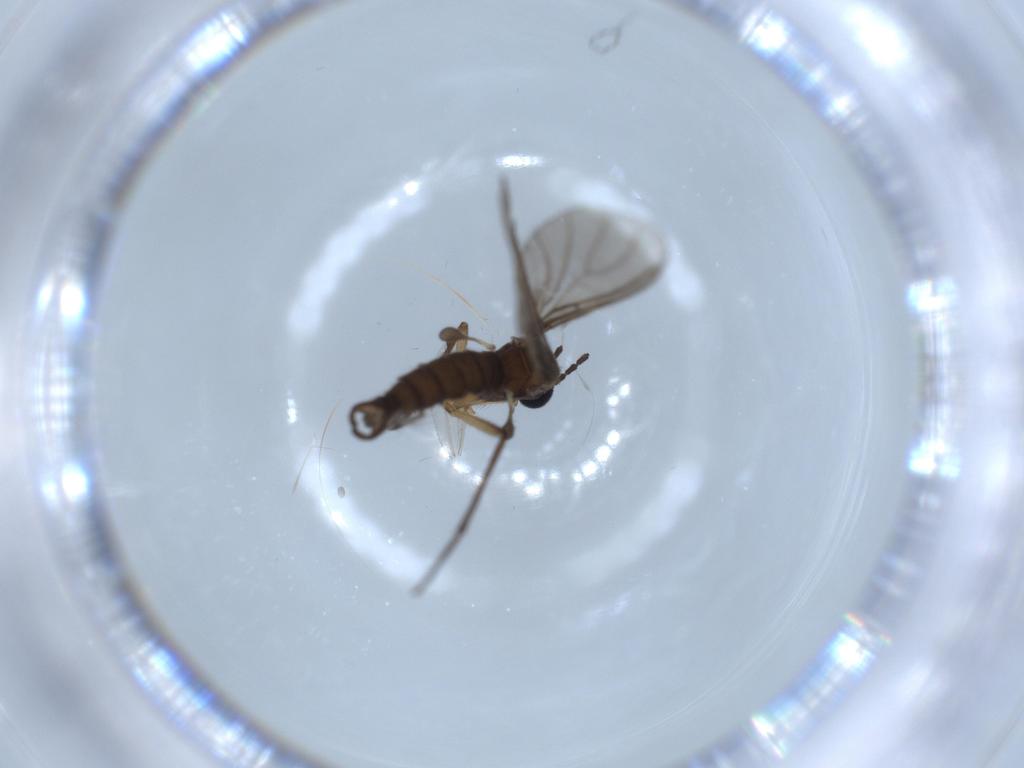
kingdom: Animalia
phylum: Arthropoda
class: Insecta
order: Diptera
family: Sciaridae
